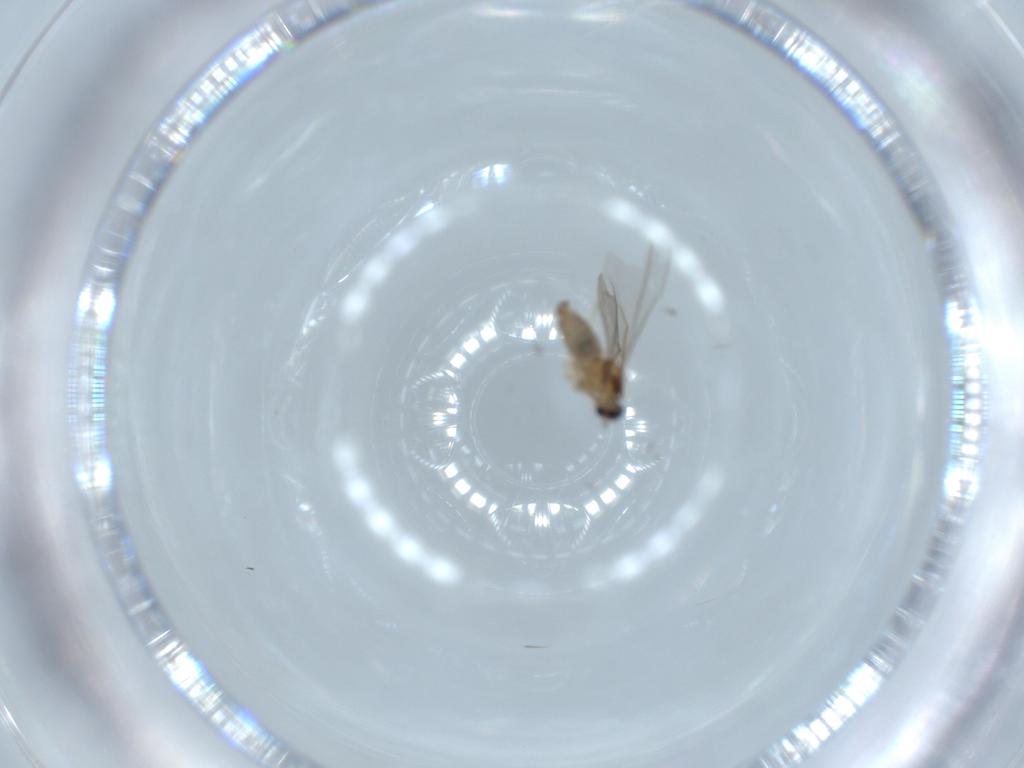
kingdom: Animalia
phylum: Arthropoda
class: Insecta
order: Diptera
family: Cecidomyiidae
